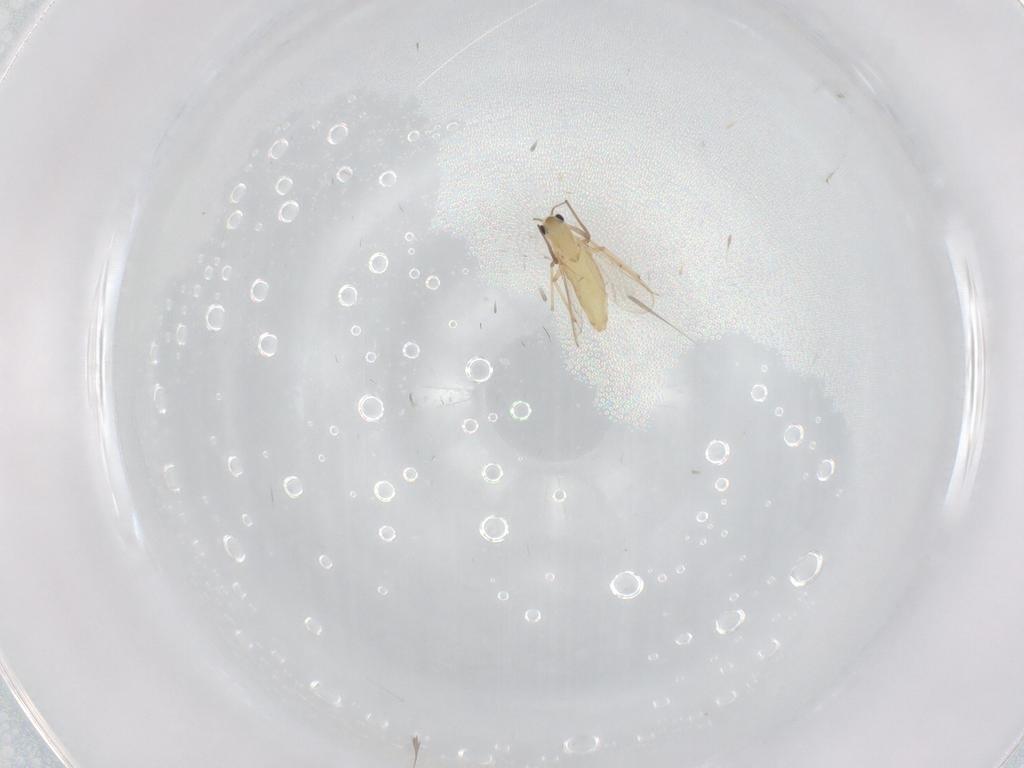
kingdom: Animalia
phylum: Arthropoda
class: Insecta
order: Diptera
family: Chironomidae
